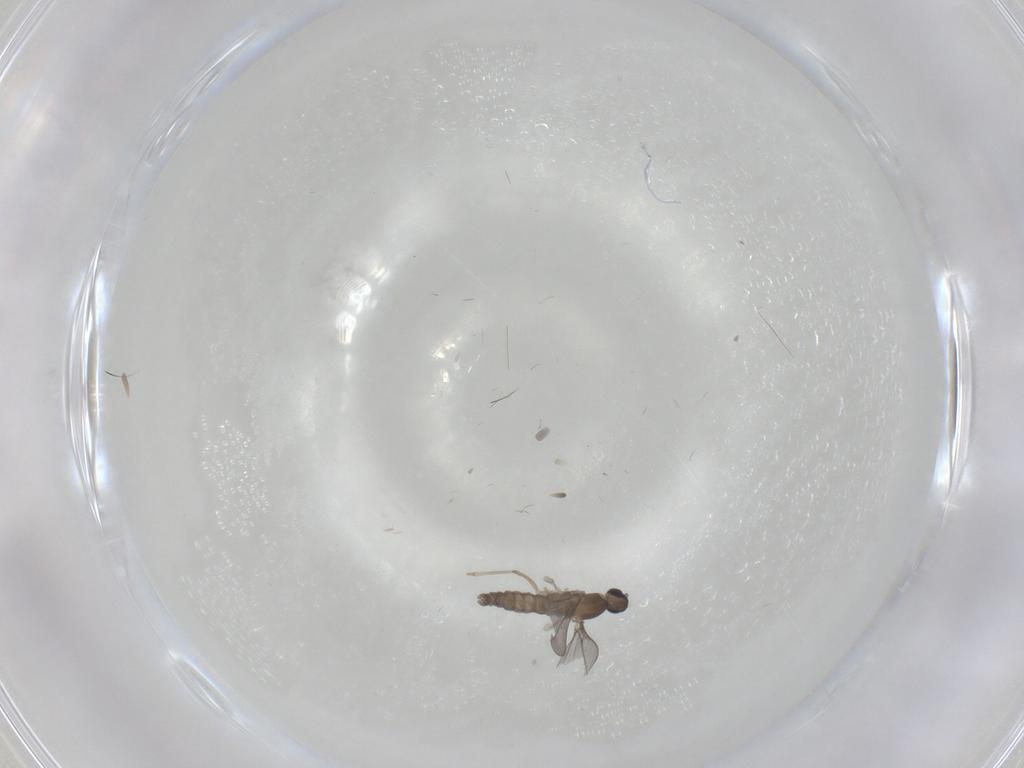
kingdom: Animalia
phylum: Arthropoda
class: Insecta
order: Diptera
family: Cecidomyiidae
